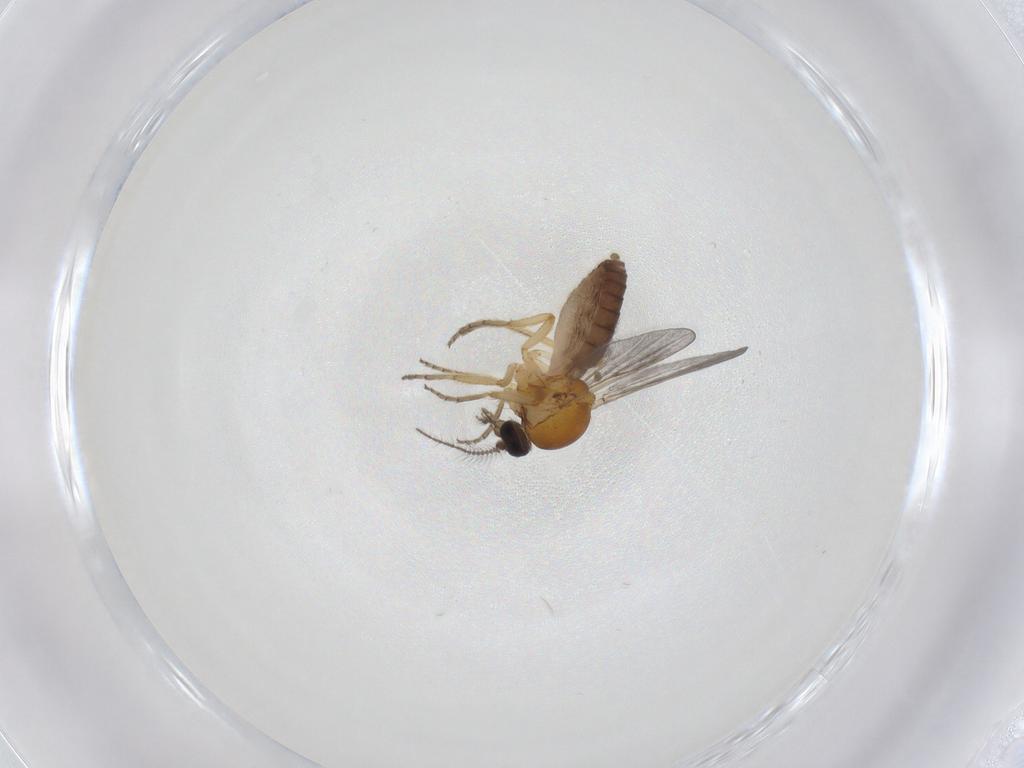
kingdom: Animalia
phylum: Arthropoda
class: Insecta
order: Diptera
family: Ceratopogonidae
